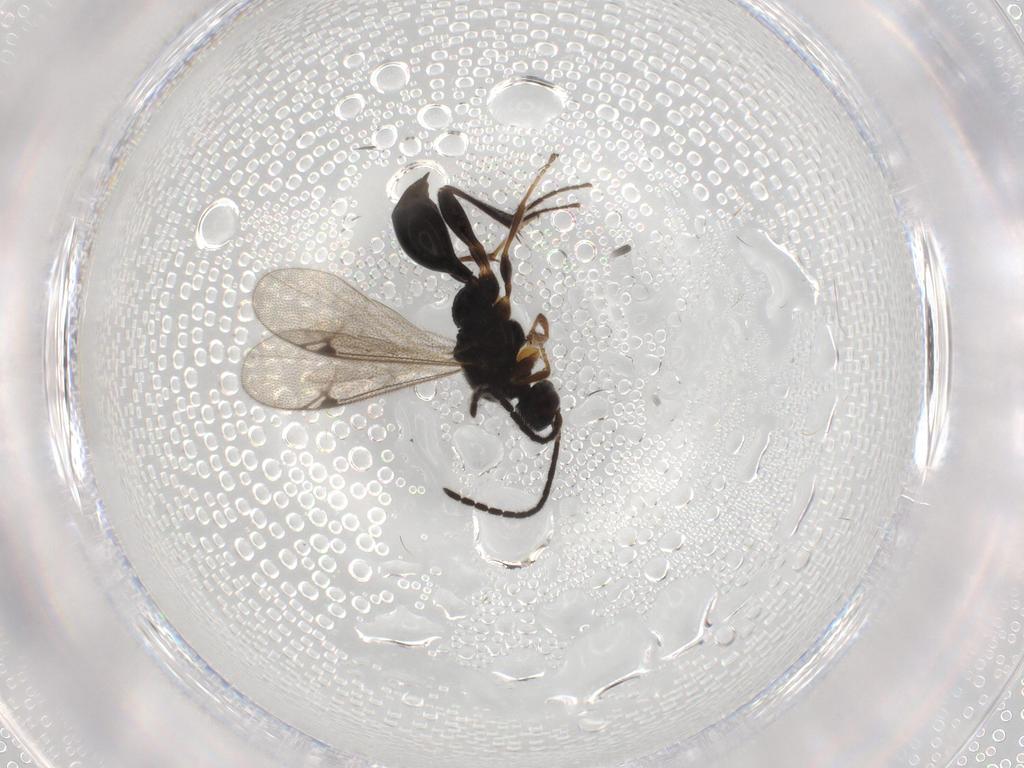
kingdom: Animalia
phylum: Arthropoda
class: Insecta
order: Hymenoptera
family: Proctotrupidae
